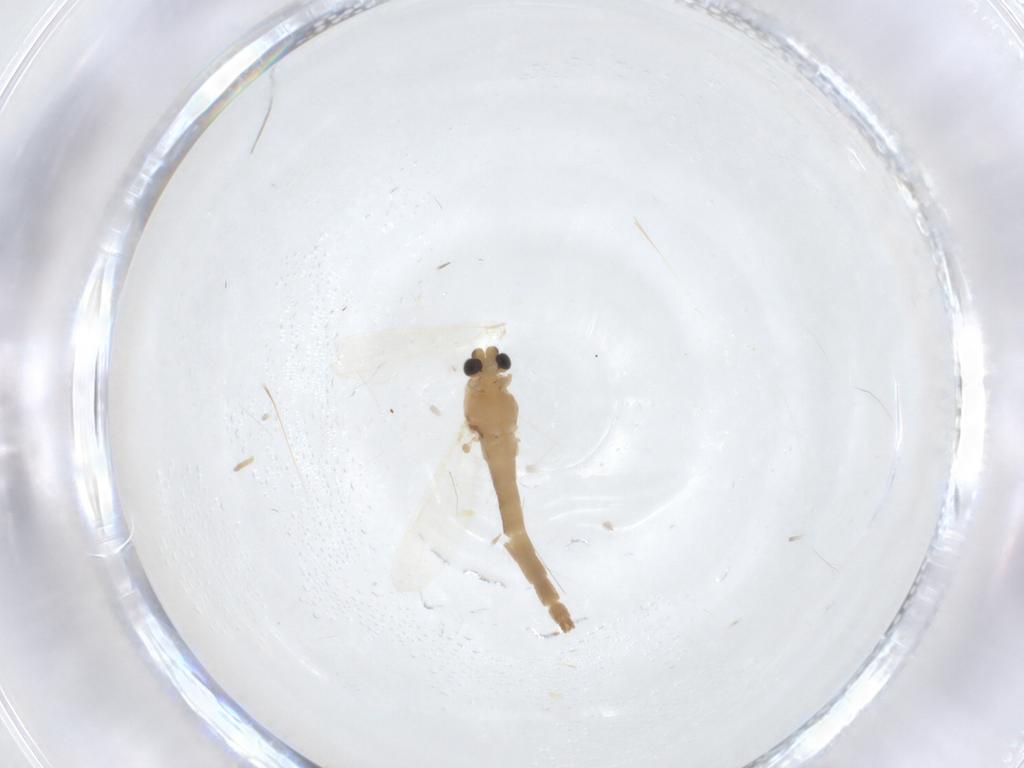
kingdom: Animalia
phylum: Arthropoda
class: Insecta
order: Diptera
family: Chironomidae
